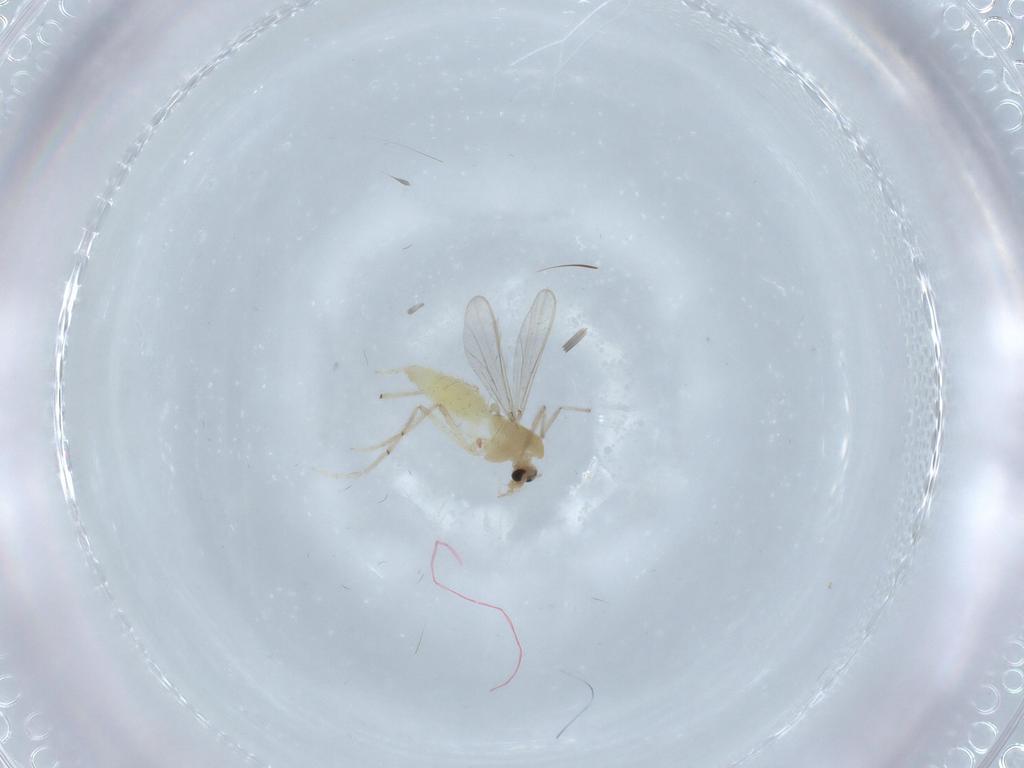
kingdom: Animalia
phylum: Arthropoda
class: Insecta
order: Diptera
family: Chironomidae
